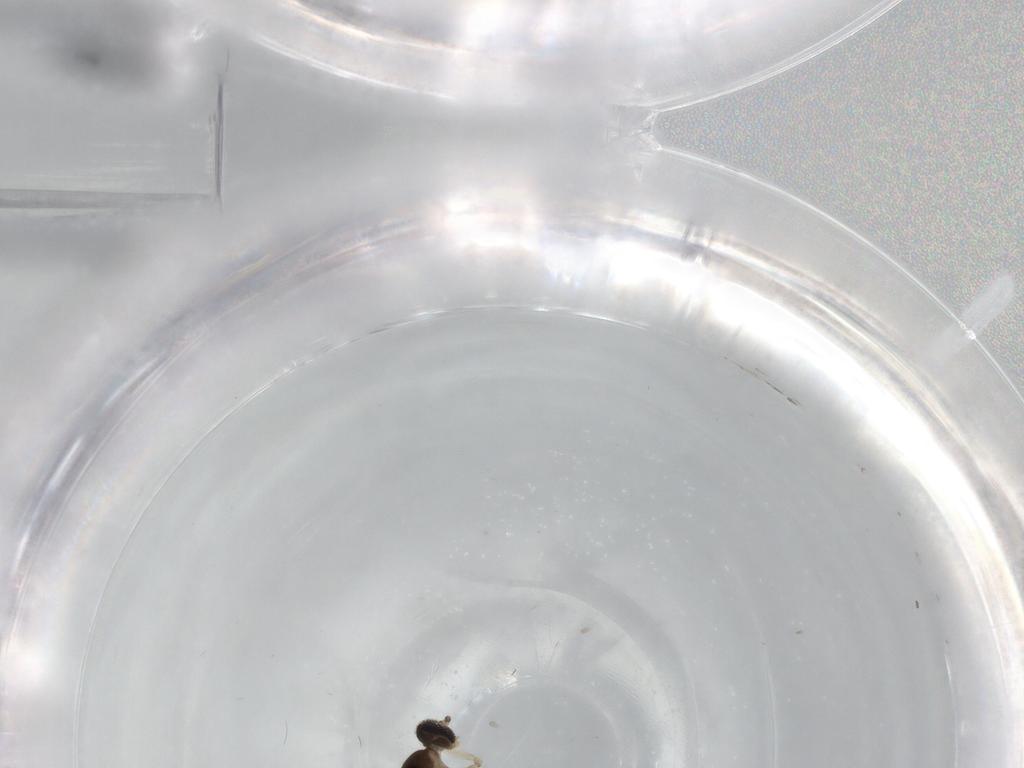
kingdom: Animalia
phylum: Arthropoda
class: Insecta
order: Diptera
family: Cecidomyiidae
